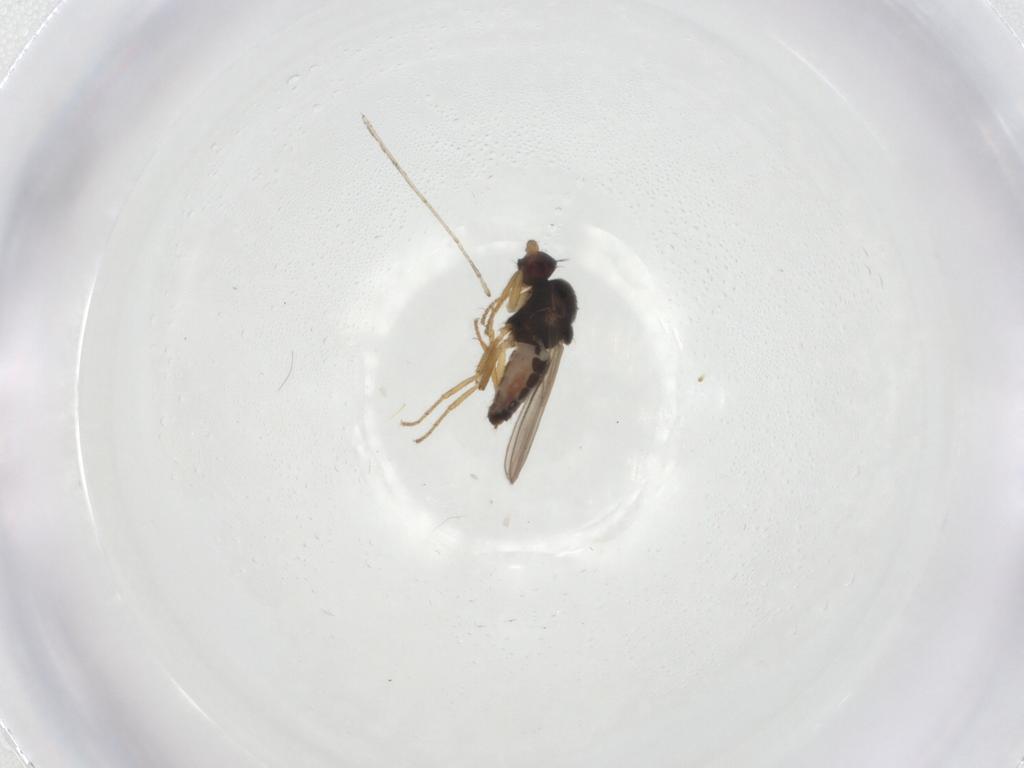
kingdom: Animalia
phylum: Arthropoda
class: Insecta
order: Diptera
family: Sphaeroceridae
